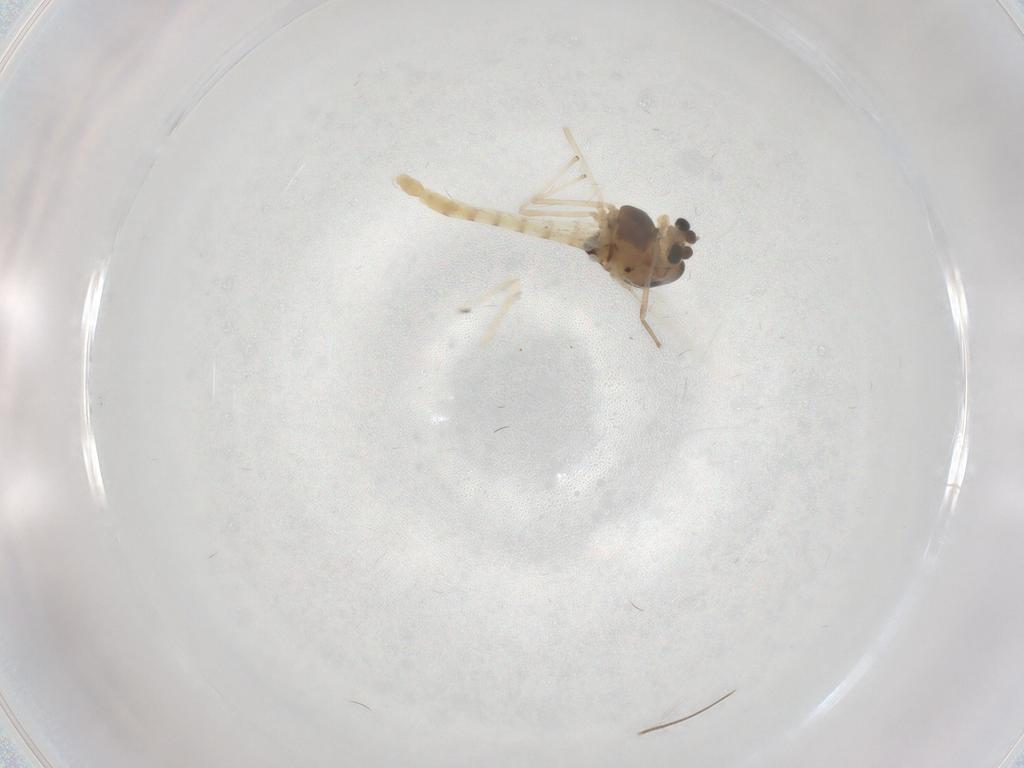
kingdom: Animalia
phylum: Arthropoda
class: Insecta
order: Diptera
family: Chironomidae
